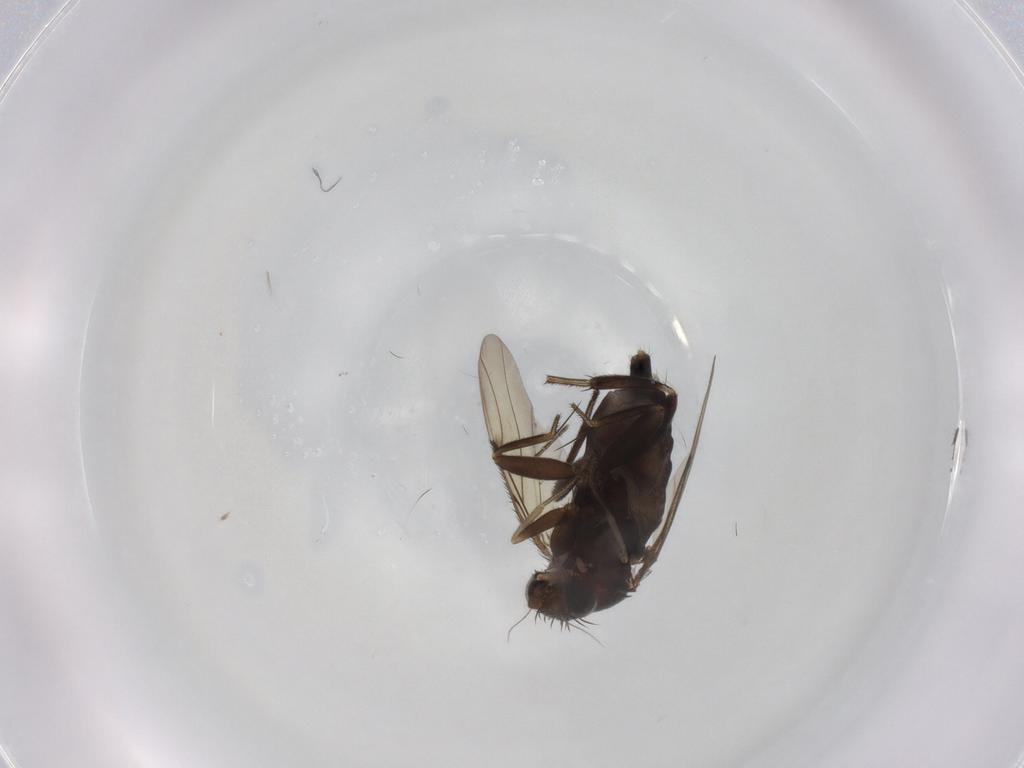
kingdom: Animalia
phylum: Arthropoda
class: Insecta
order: Diptera
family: Phoridae
